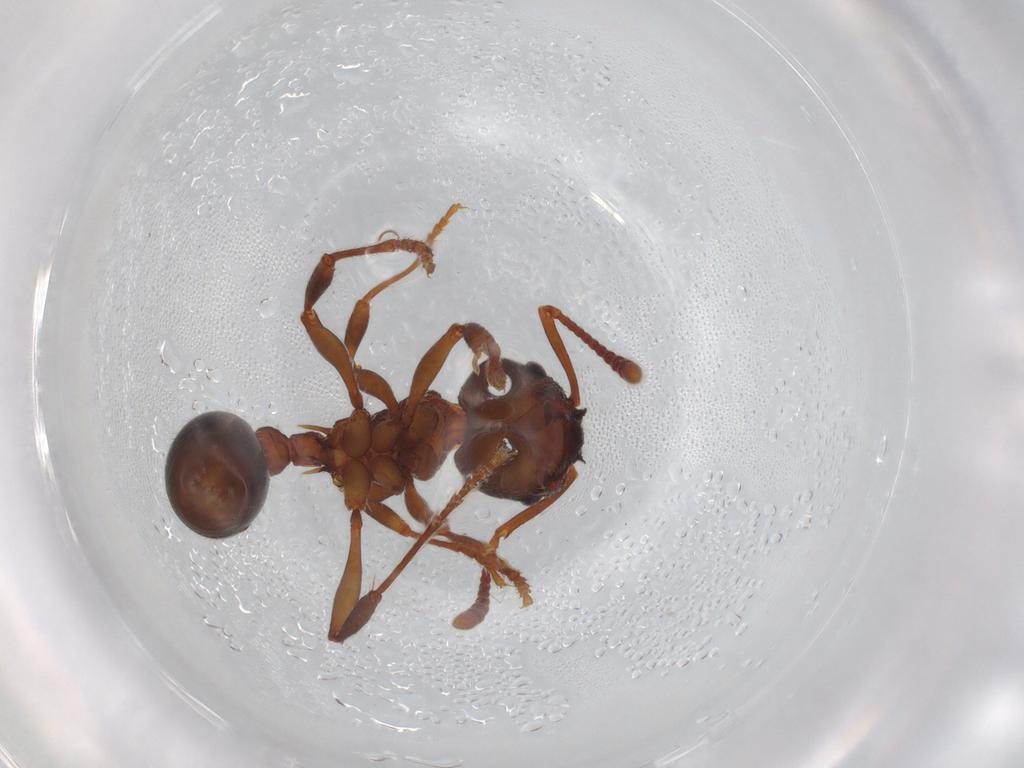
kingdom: Animalia
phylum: Arthropoda
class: Insecta
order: Hymenoptera
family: Formicidae
